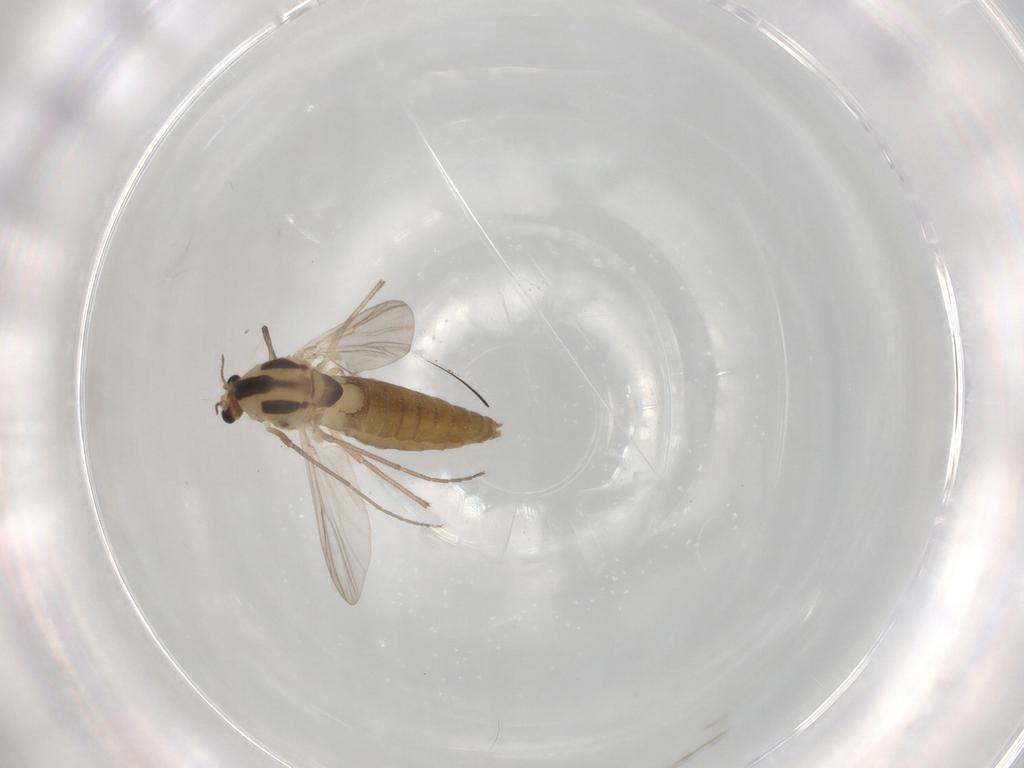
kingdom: Animalia
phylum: Arthropoda
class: Insecta
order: Diptera
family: Chironomidae
